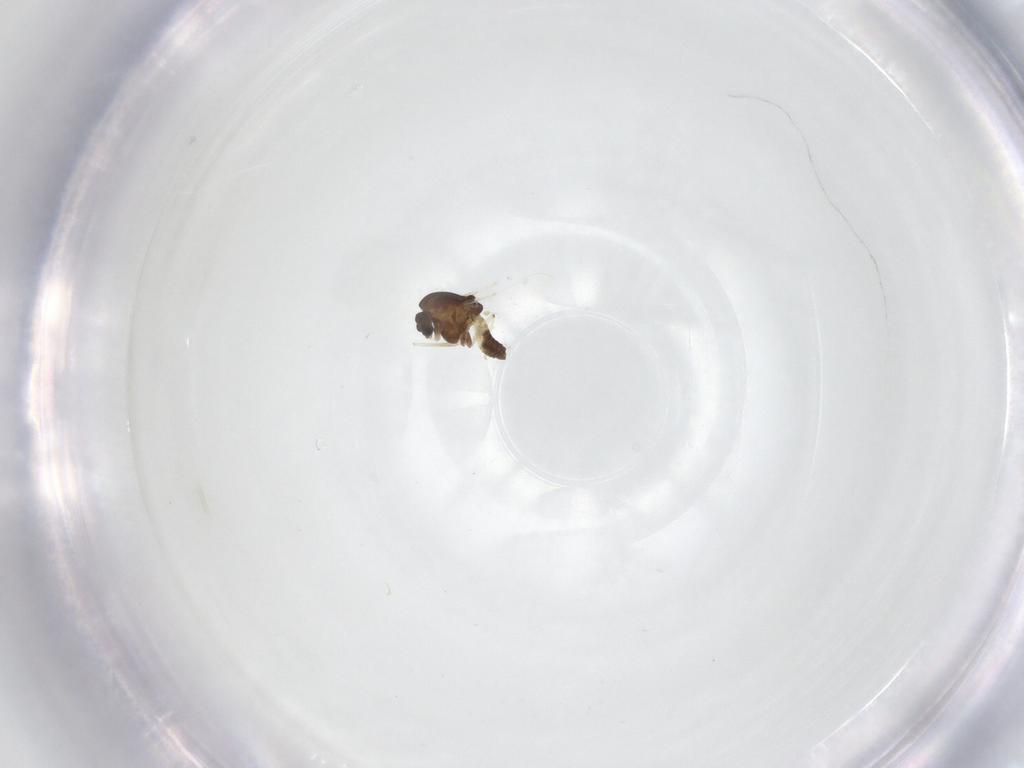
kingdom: Animalia
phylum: Arthropoda
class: Insecta
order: Diptera
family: Chironomidae
